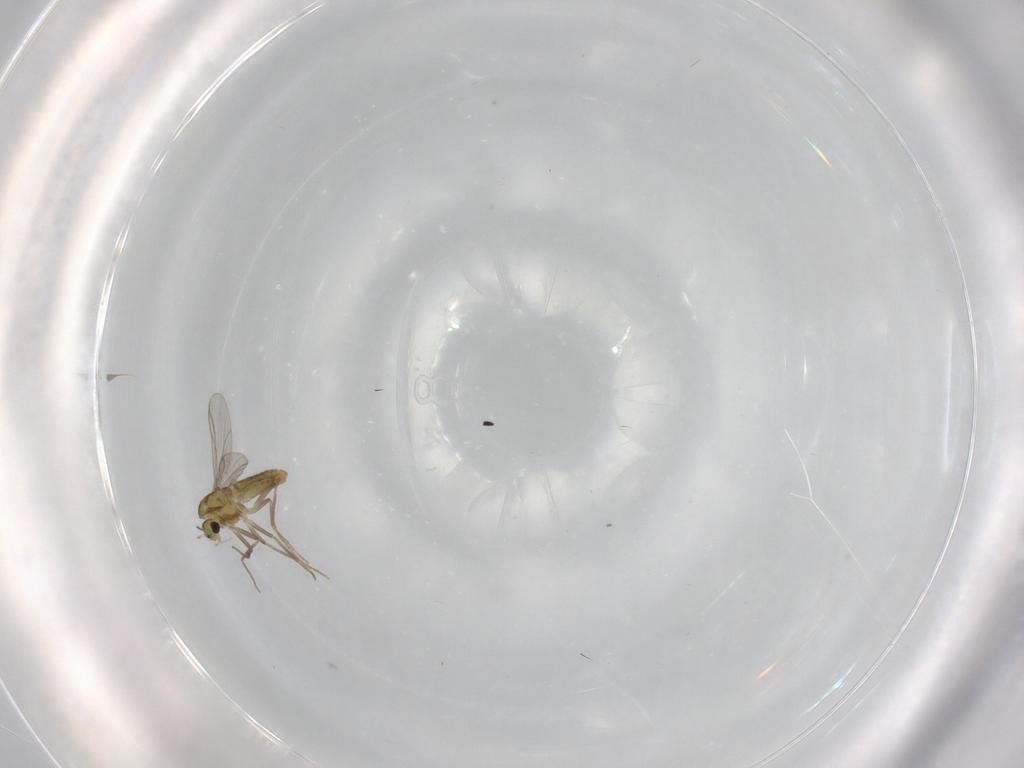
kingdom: Animalia
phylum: Arthropoda
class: Insecta
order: Diptera
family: Chironomidae
